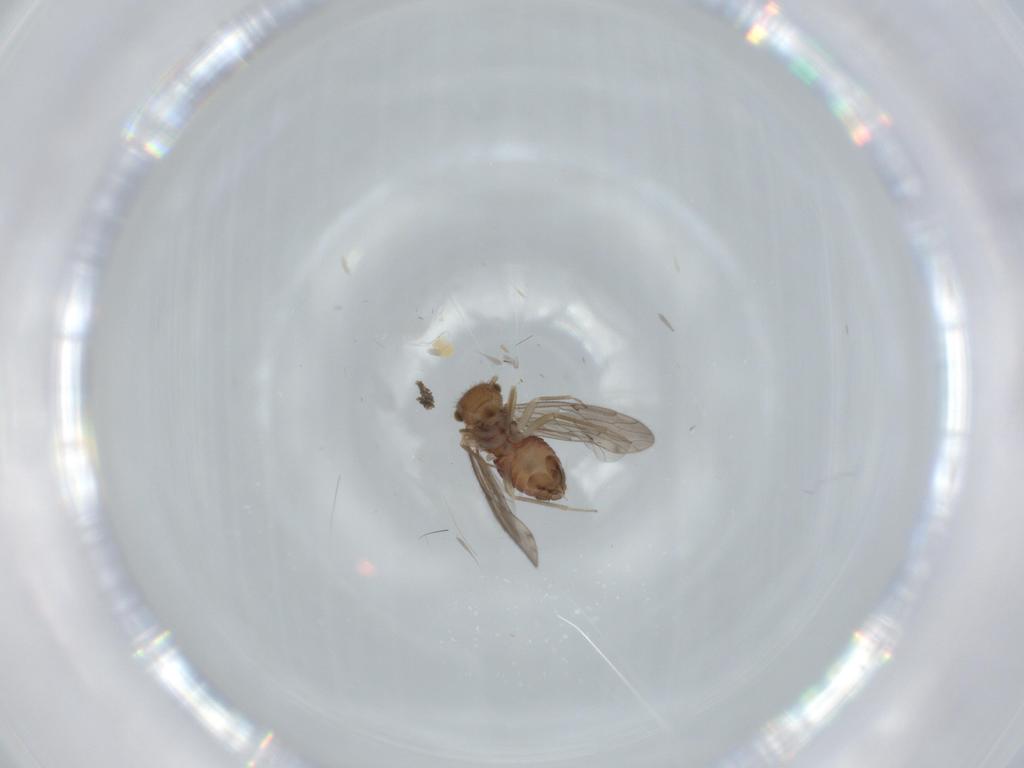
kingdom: Animalia
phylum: Arthropoda
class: Insecta
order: Psocodea
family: Ectopsocidae
